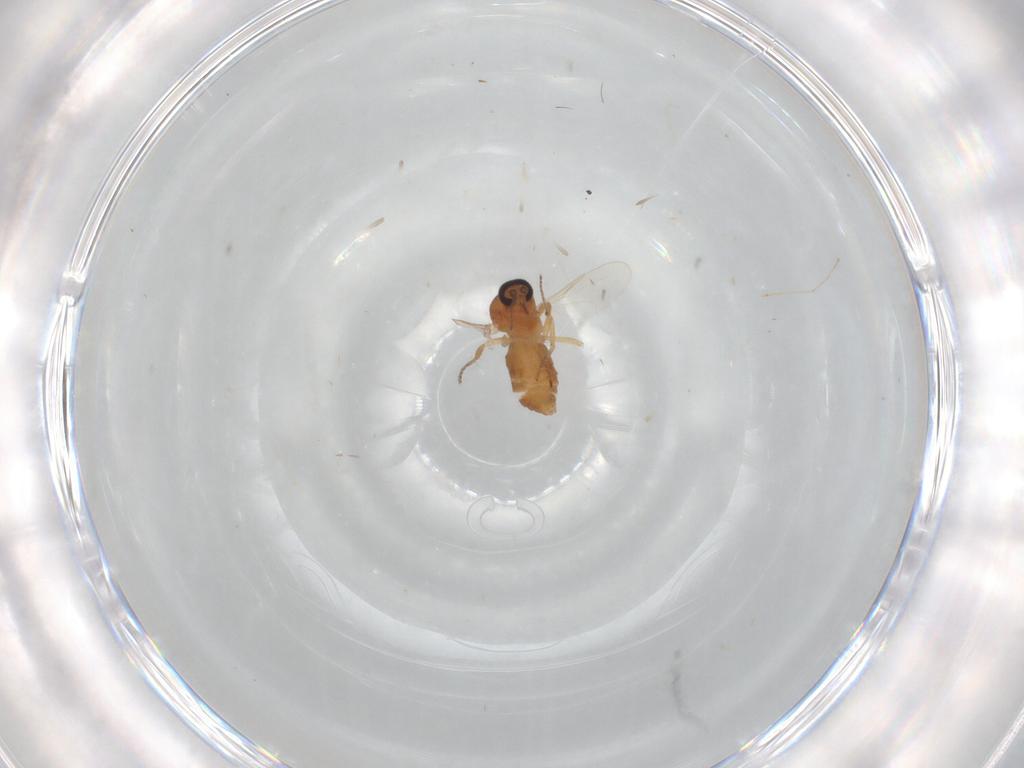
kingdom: Animalia
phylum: Arthropoda
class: Insecta
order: Diptera
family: Ceratopogonidae
